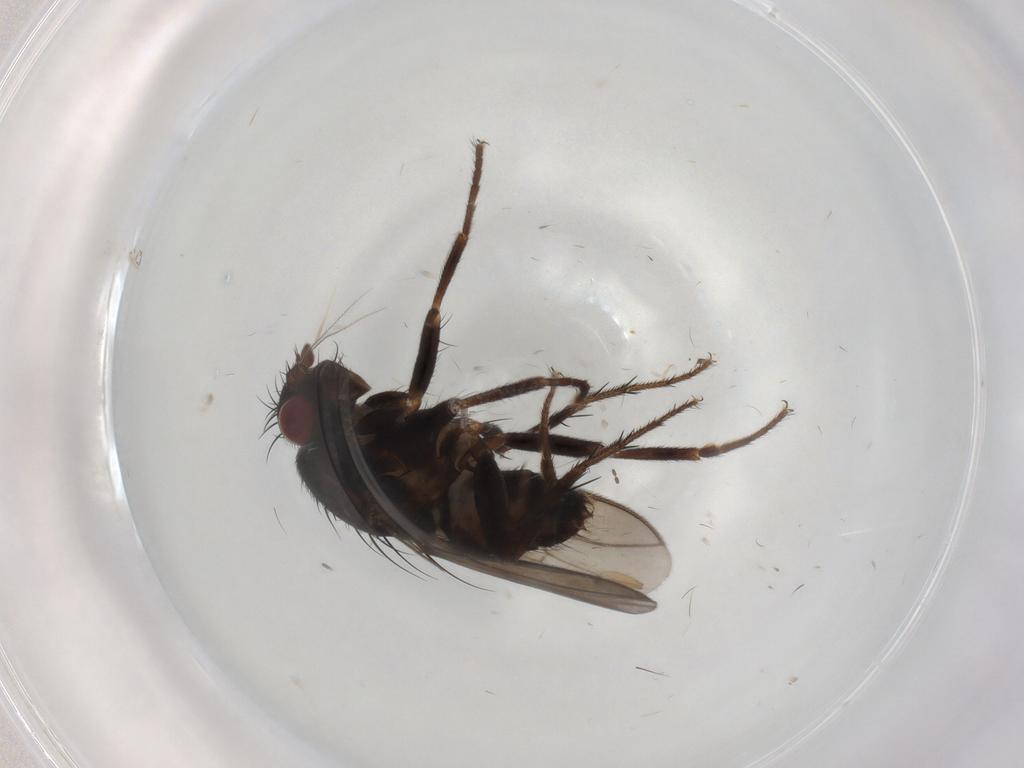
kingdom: Animalia
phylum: Arthropoda
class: Insecta
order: Diptera
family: Sphaeroceridae
